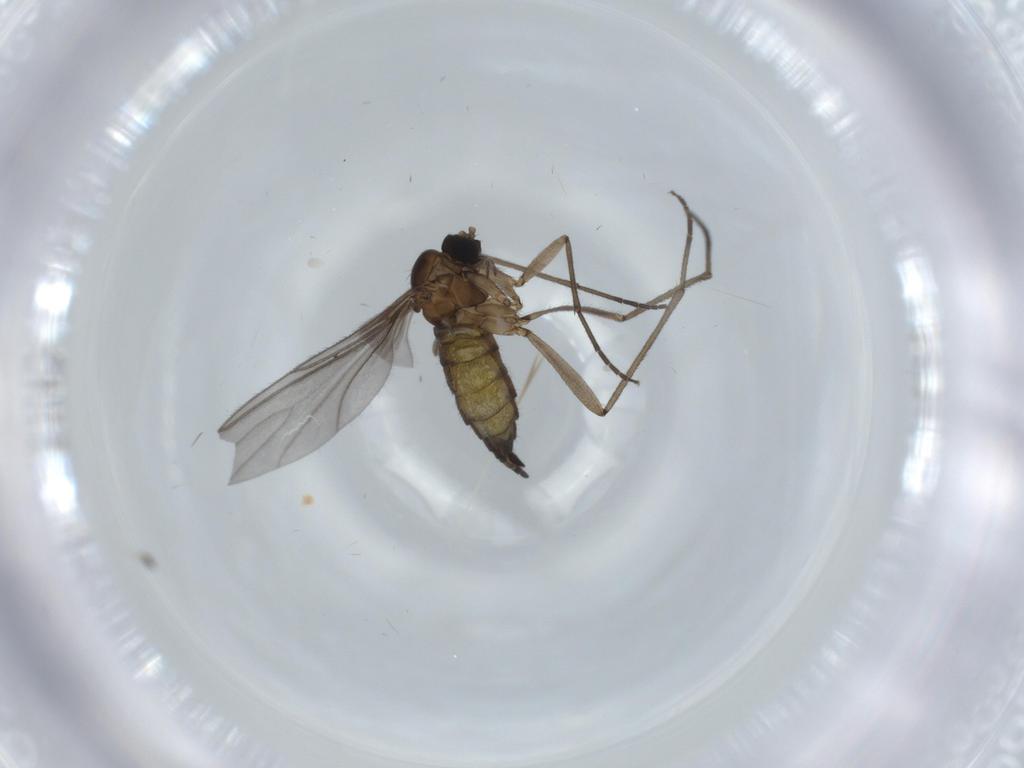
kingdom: Animalia
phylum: Arthropoda
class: Insecta
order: Diptera
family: Sciaridae
